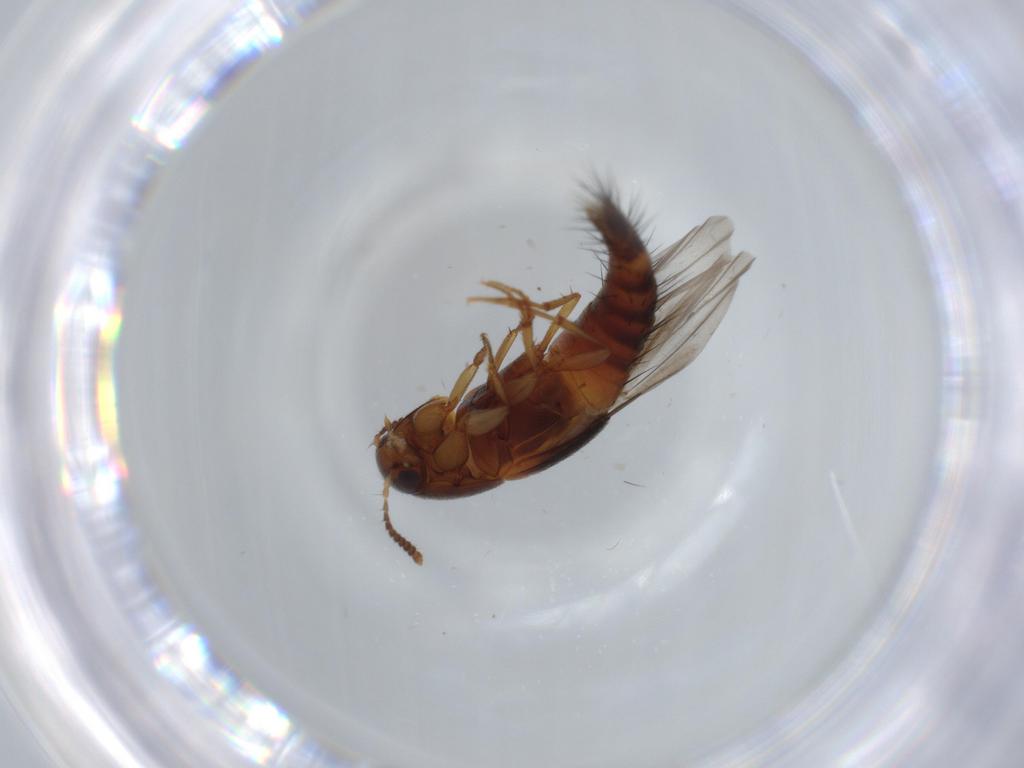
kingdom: Animalia
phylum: Arthropoda
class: Insecta
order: Coleoptera
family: Staphylinidae
